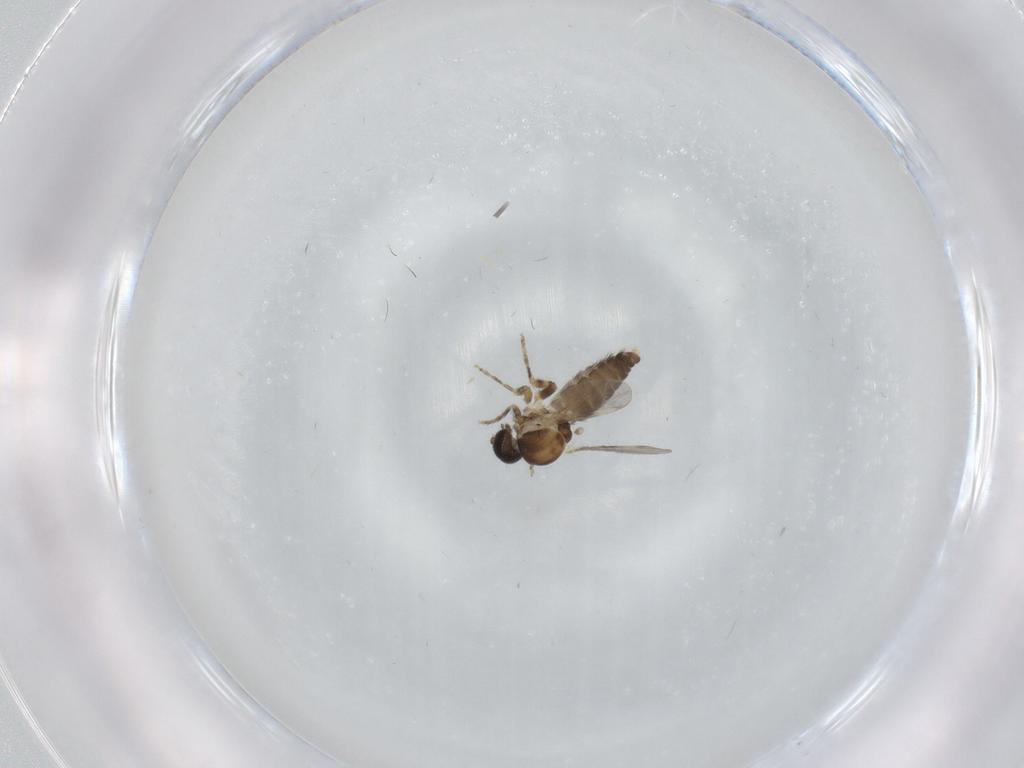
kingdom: Animalia
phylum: Arthropoda
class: Insecta
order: Diptera
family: Ceratopogonidae
